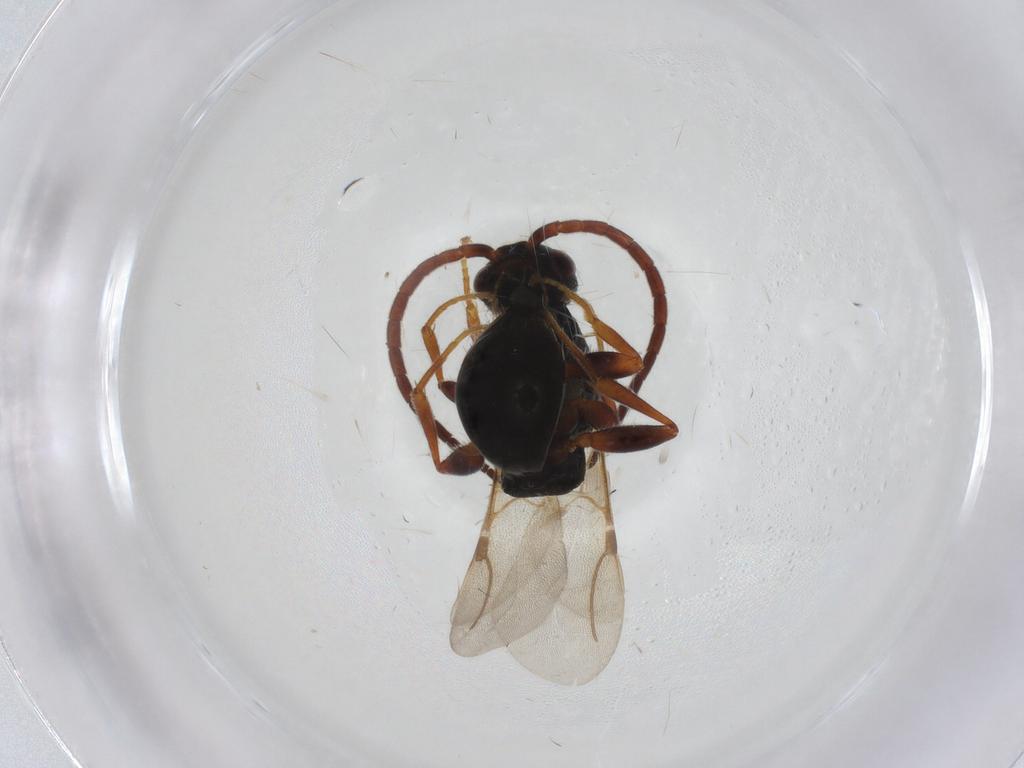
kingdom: Animalia
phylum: Arthropoda
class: Insecta
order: Hymenoptera
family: Bethylidae
